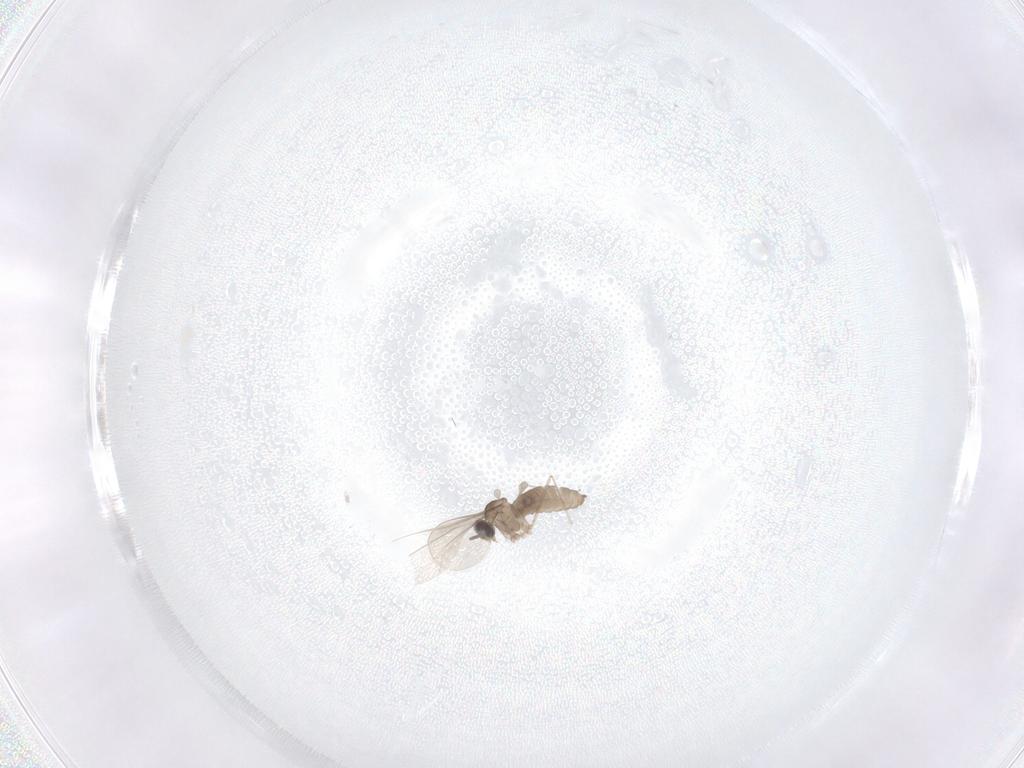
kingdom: Animalia
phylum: Arthropoda
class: Insecta
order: Diptera
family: Cecidomyiidae
